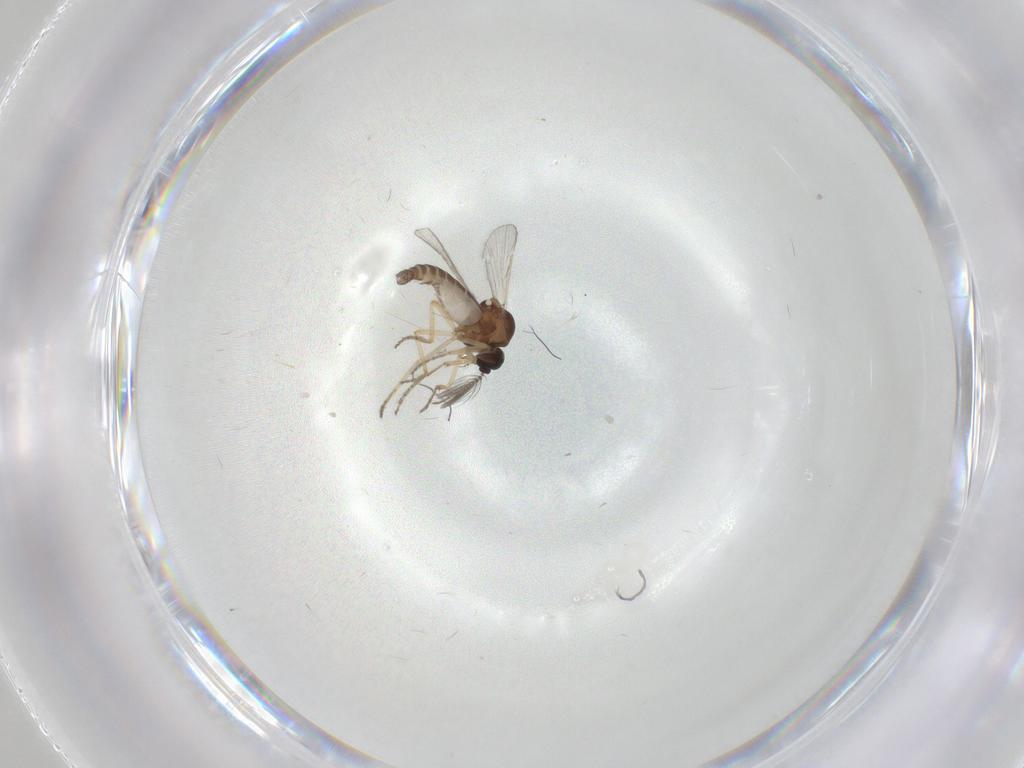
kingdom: Animalia
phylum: Arthropoda
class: Insecta
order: Diptera
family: Ceratopogonidae
